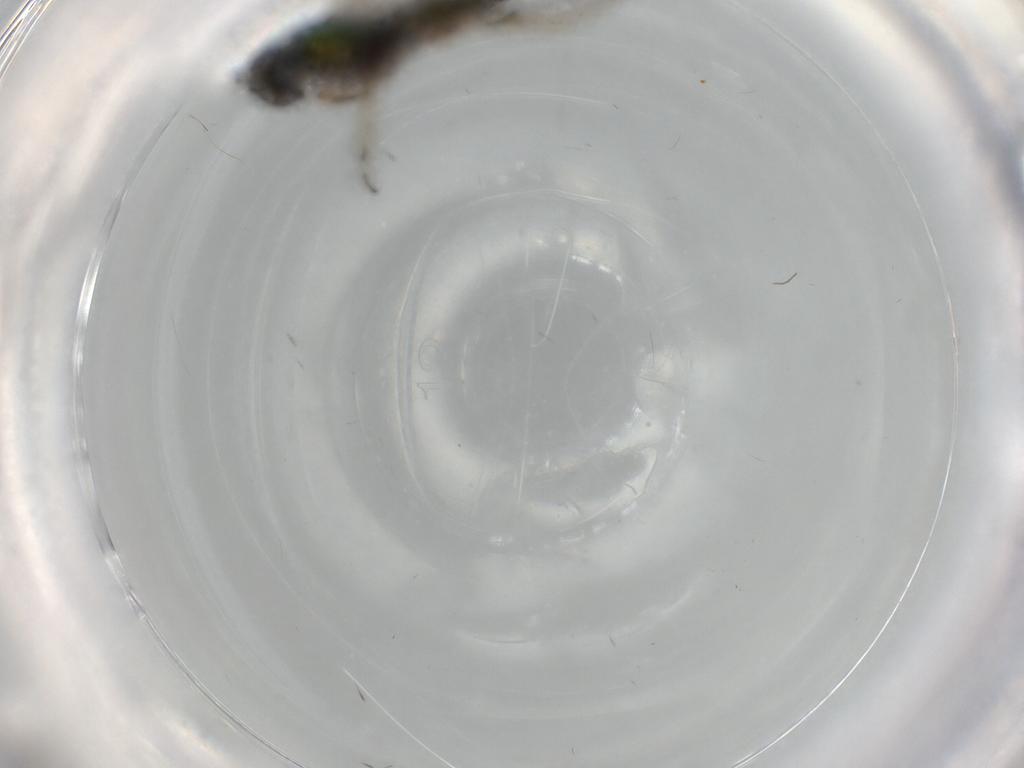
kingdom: Animalia
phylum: Arthropoda
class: Insecta
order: Diptera
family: Chironomidae
